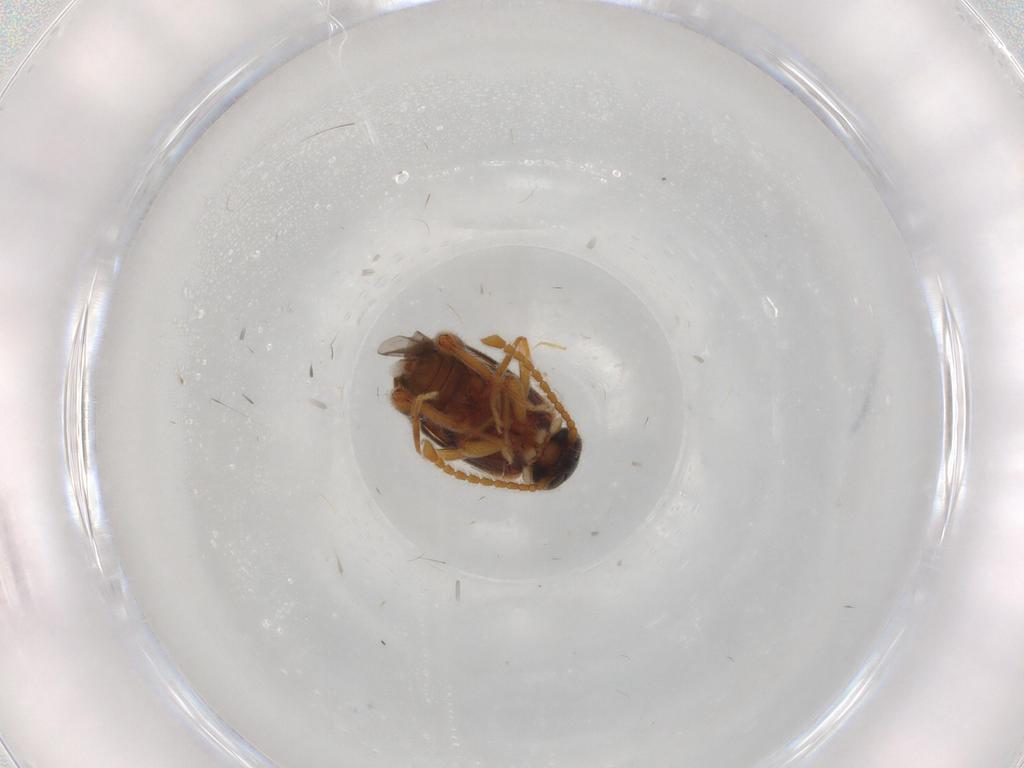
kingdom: Animalia
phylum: Arthropoda
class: Insecta
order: Coleoptera
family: Aderidae
